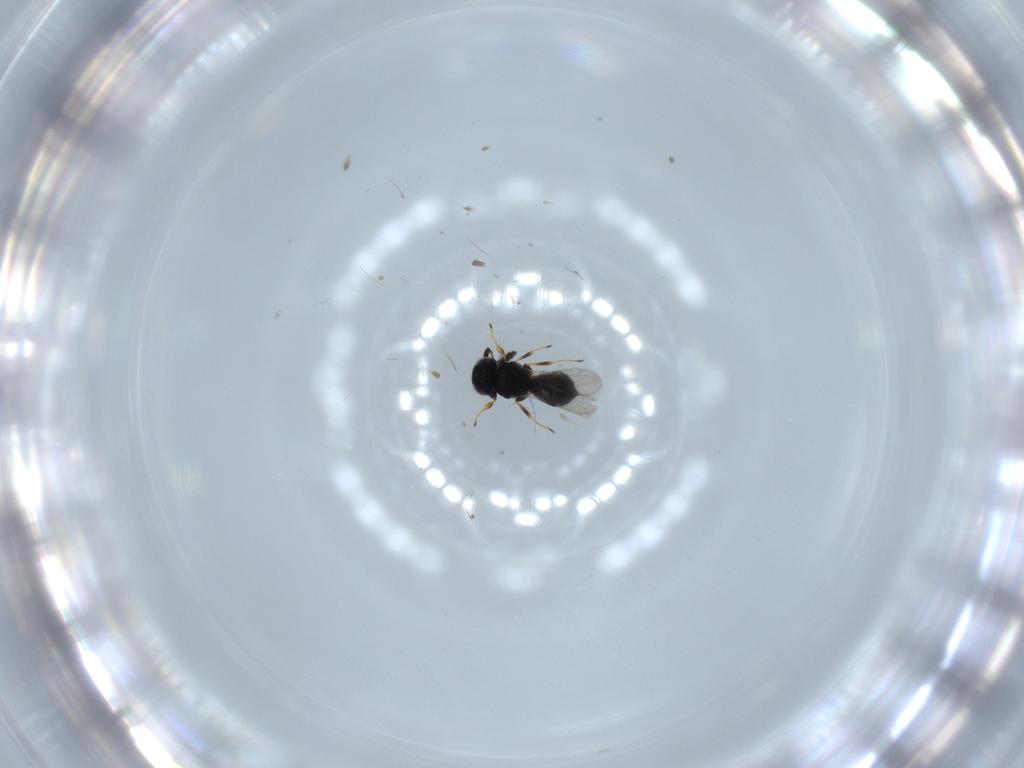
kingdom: Animalia
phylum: Arthropoda
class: Insecta
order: Hymenoptera
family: Scelionidae
